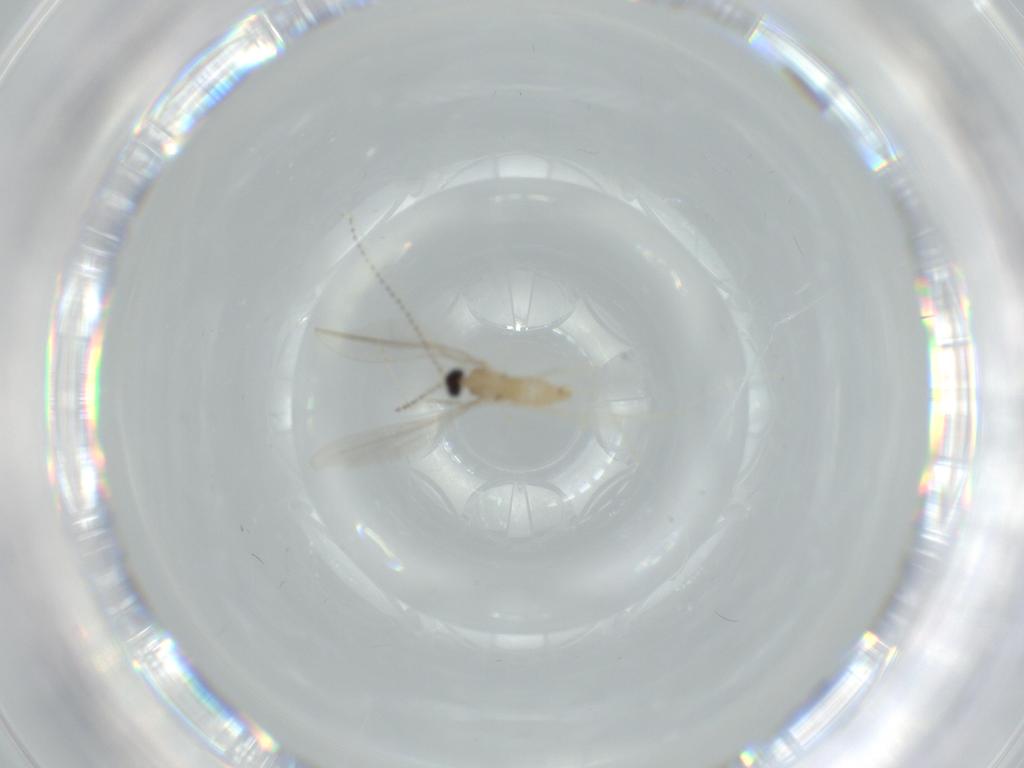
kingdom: Animalia
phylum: Arthropoda
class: Insecta
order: Diptera
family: Cecidomyiidae
